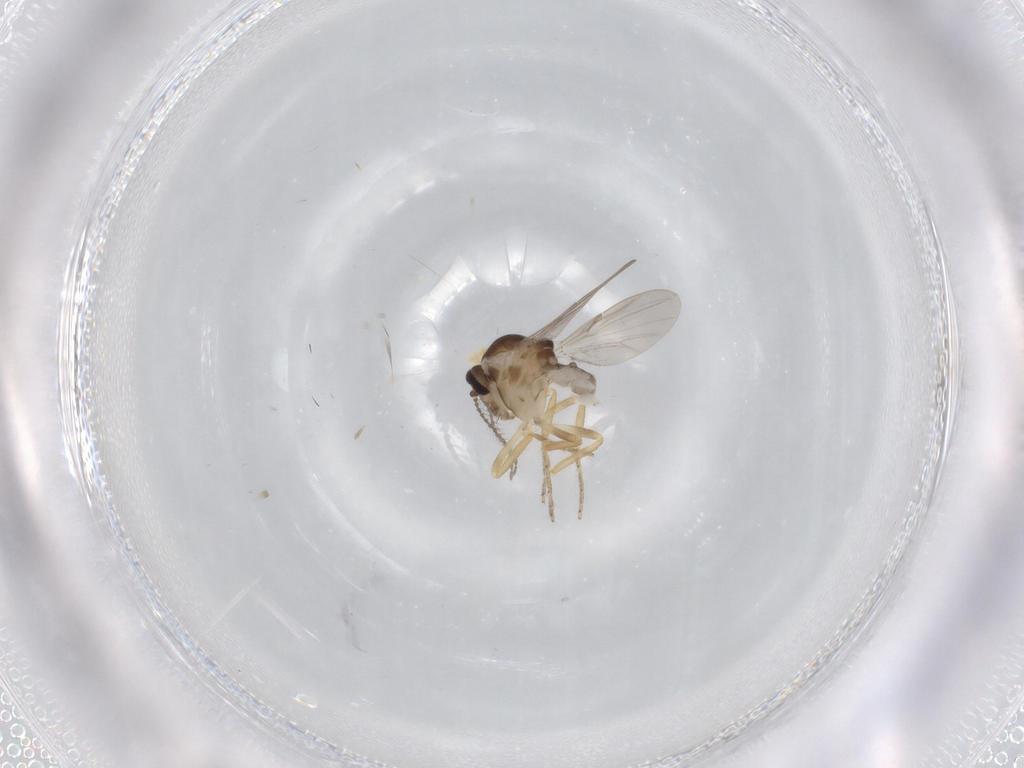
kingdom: Animalia
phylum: Arthropoda
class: Insecta
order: Diptera
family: Ceratopogonidae
